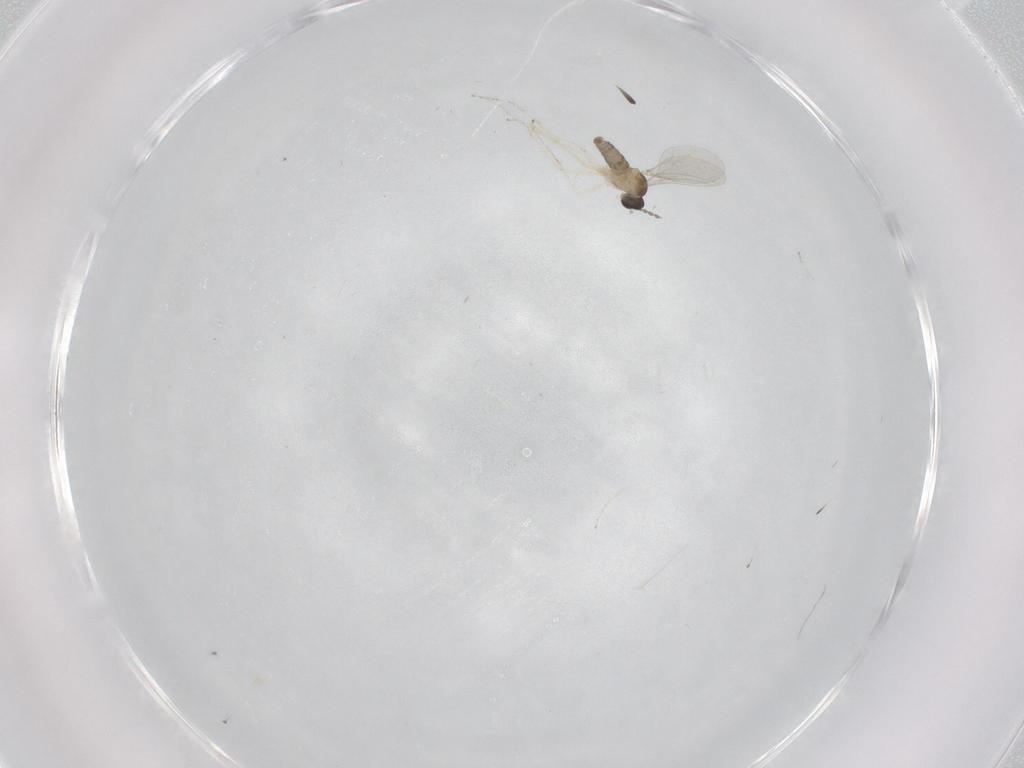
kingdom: Animalia
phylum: Arthropoda
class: Insecta
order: Diptera
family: Cecidomyiidae
